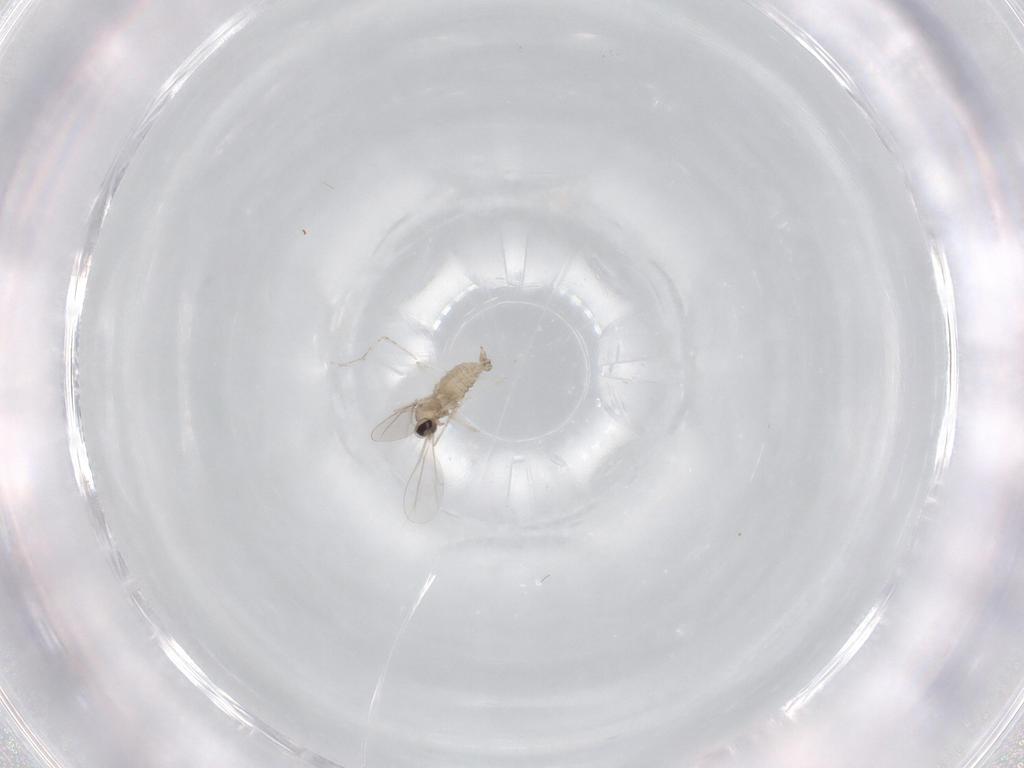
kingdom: Animalia
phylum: Arthropoda
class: Insecta
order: Diptera
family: Cecidomyiidae
